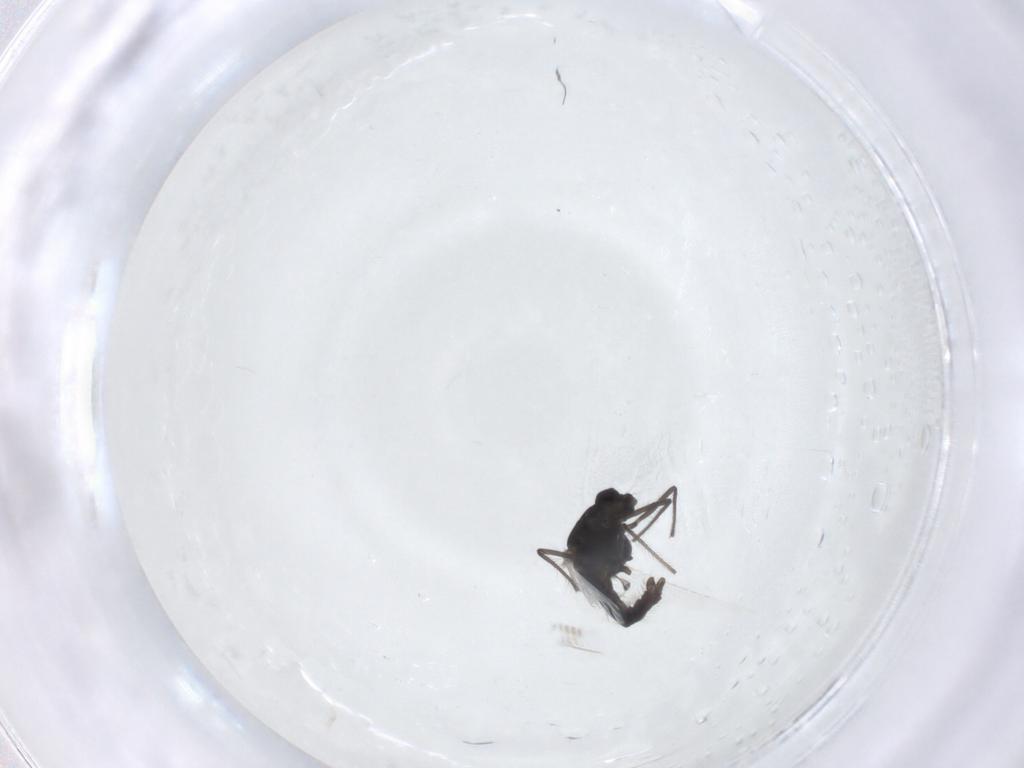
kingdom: Animalia
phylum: Arthropoda
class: Insecta
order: Diptera
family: Chironomidae
